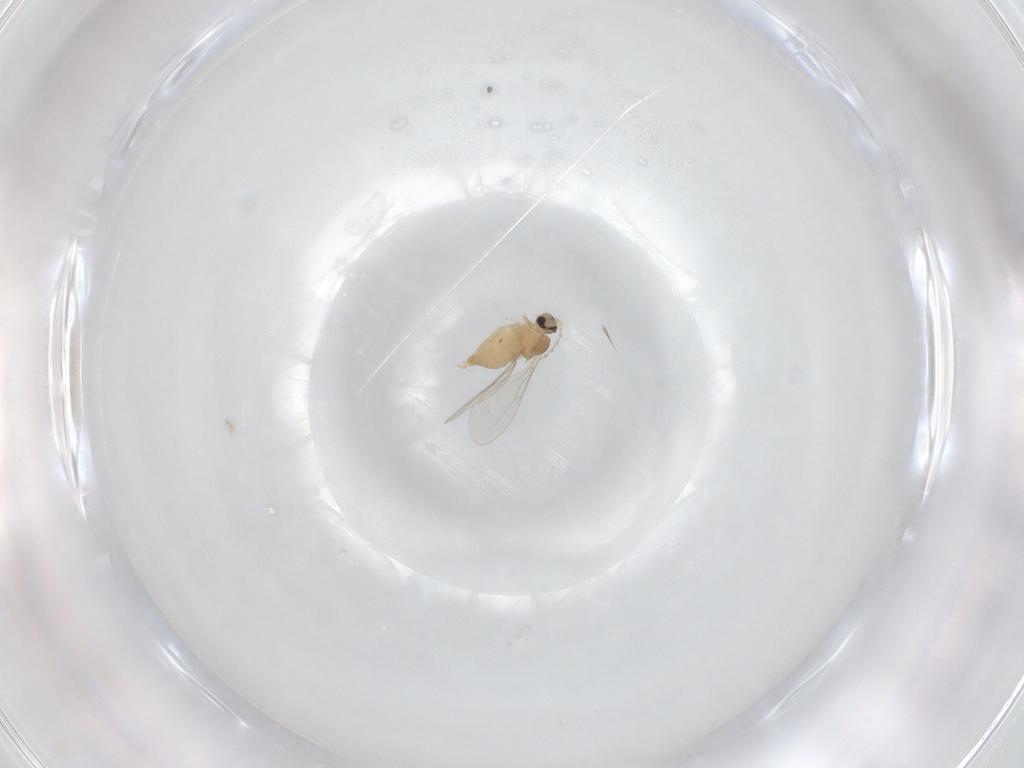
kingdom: Animalia
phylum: Arthropoda
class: Insecta
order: Diptera
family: Cecidomyiidae
